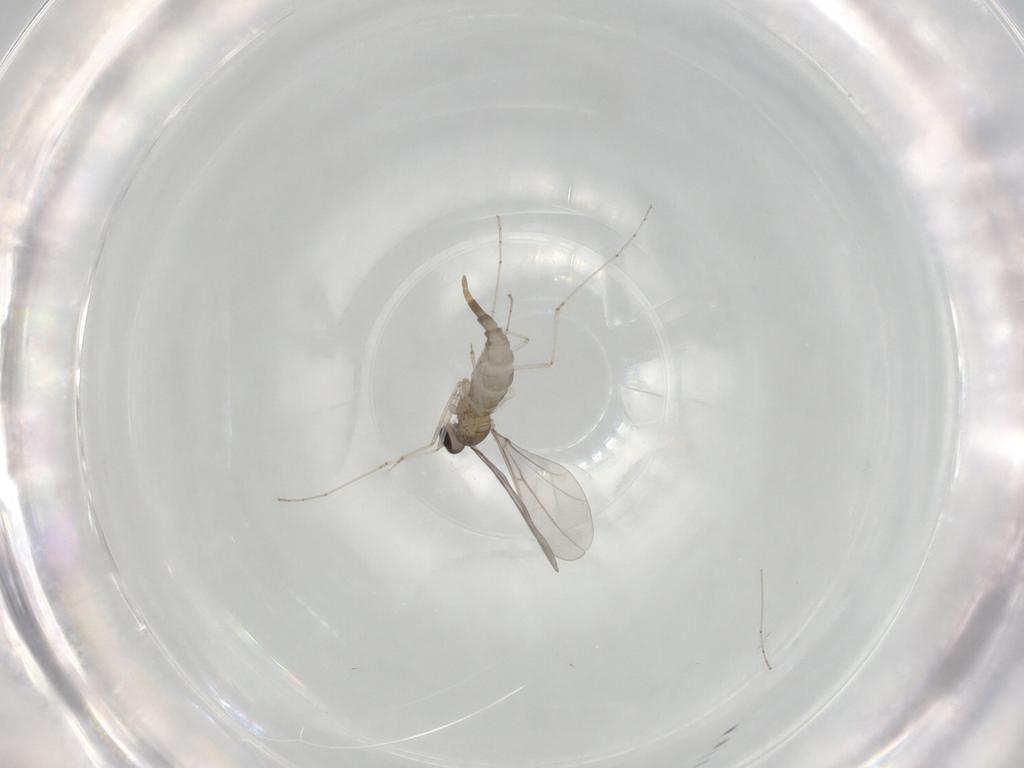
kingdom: Animalia
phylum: Arthropoda
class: Insecta
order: Diptera
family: Cecidomyiidae
